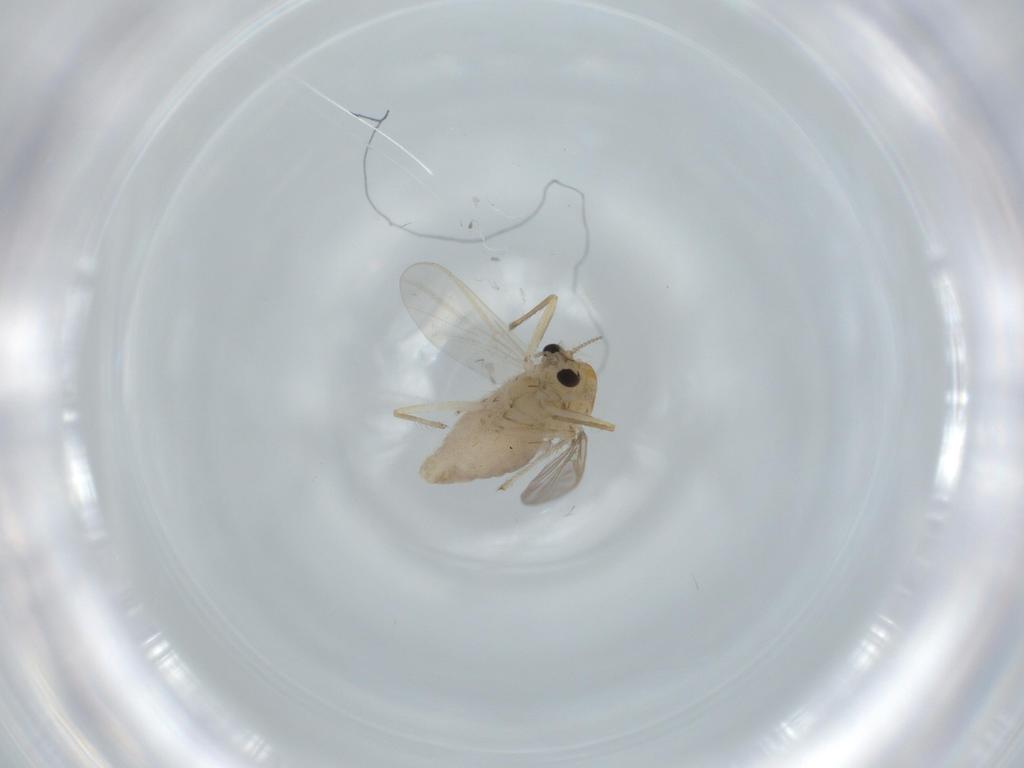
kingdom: Animalia
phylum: Arthropoda
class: Insecta
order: Diptera
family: Chironomidae
